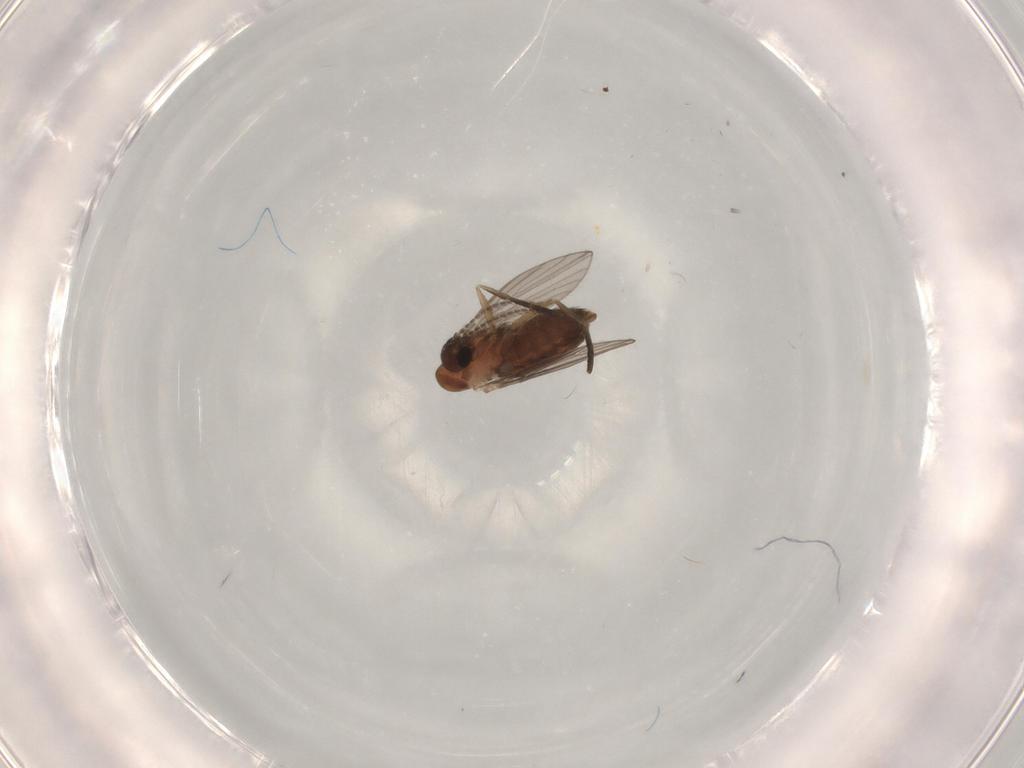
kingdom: Animalia
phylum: Arthropoda
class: Insecta
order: Diptera
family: Psychodidae
